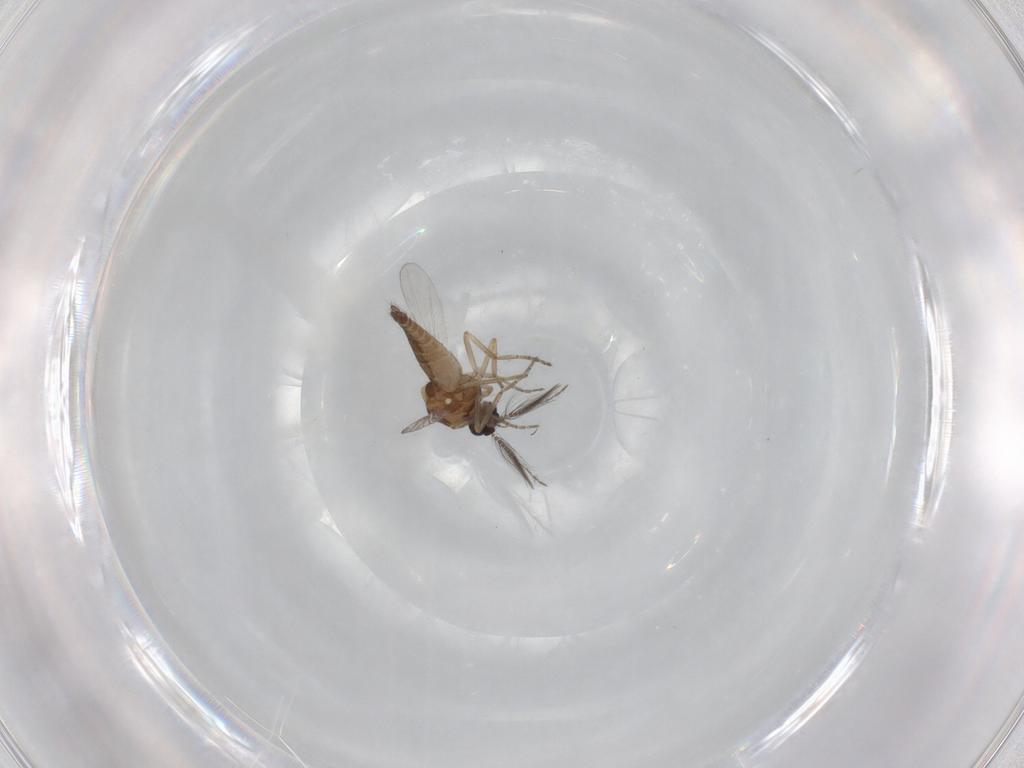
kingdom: Animalia
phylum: Arthropoda
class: Insecta
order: Diptera
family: Ceratopogonidae
